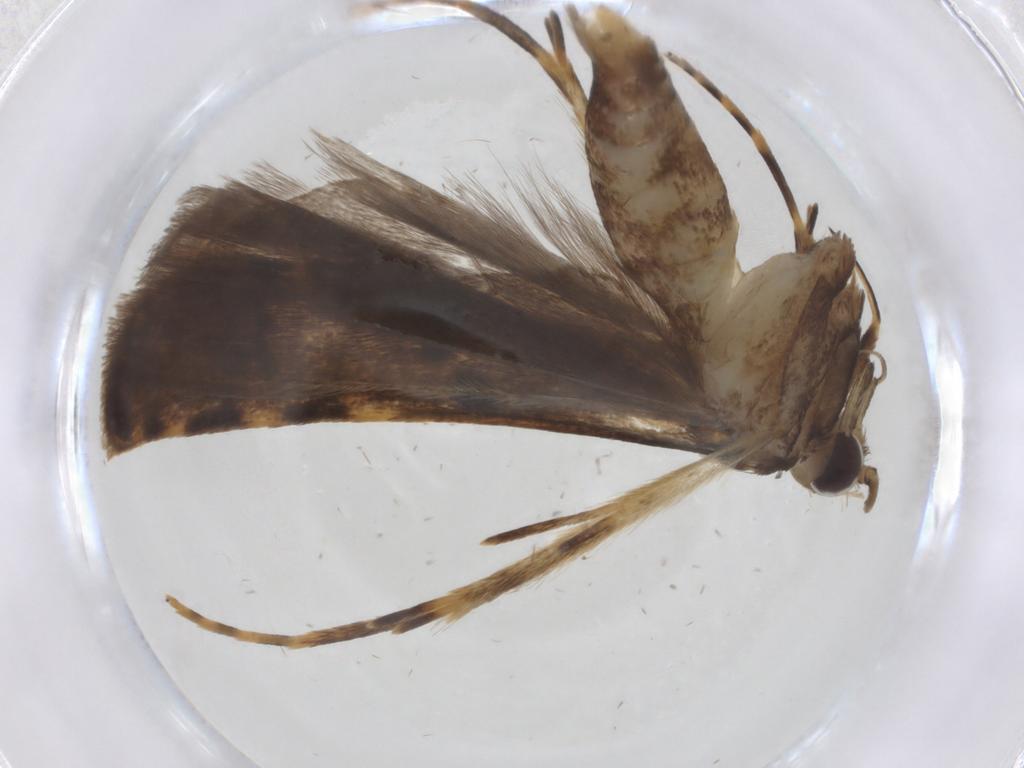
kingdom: Animalia
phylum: Arthropoda
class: Insecta
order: Lepidoptera
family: Autostichidae
